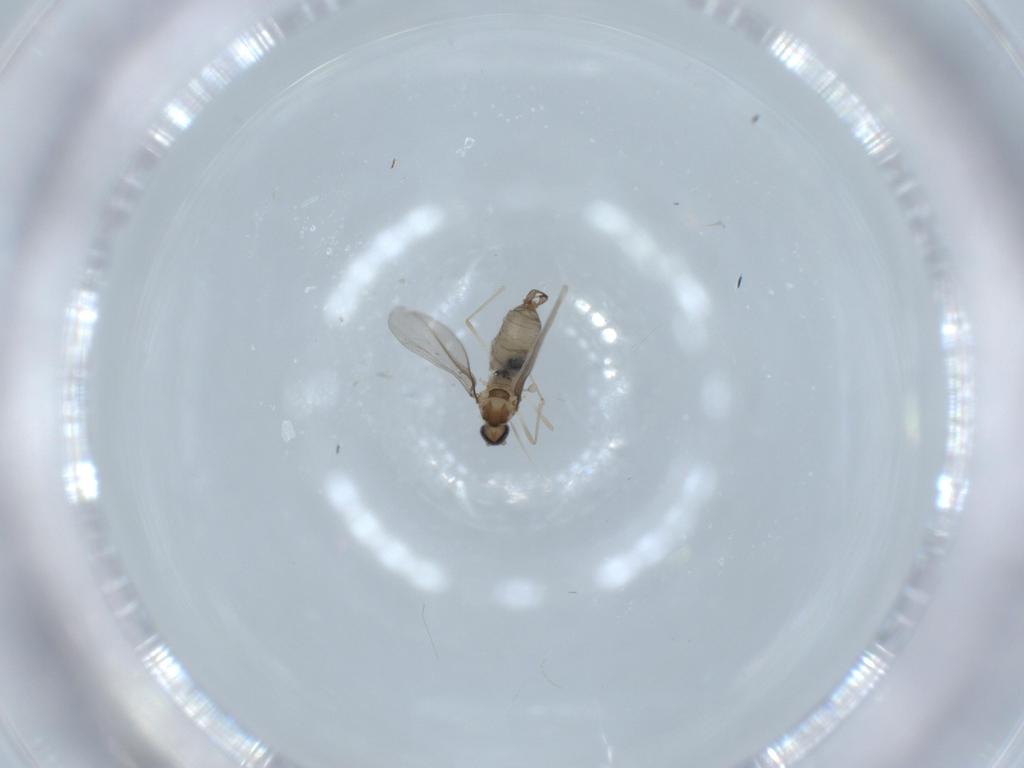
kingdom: Animalia
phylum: Arthropoda
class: Insecta
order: Diptera
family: Cecidomyiidae
